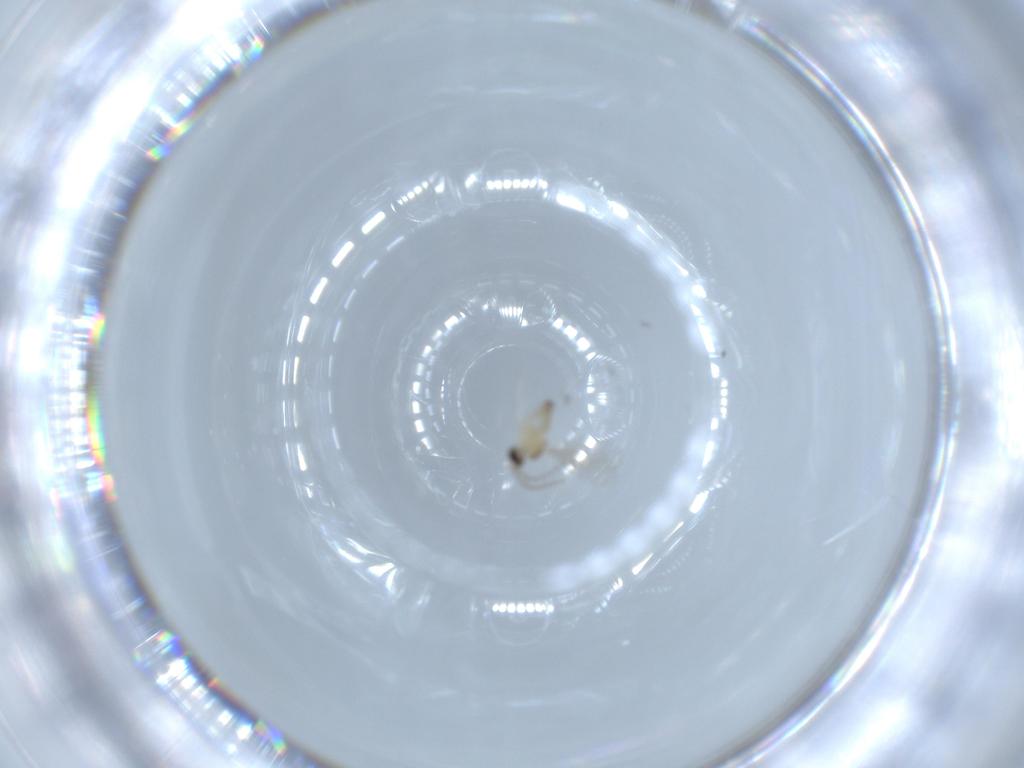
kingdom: Animalia
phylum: Arthropoda
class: Insecta
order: Diptera
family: Cecidomyiidae
